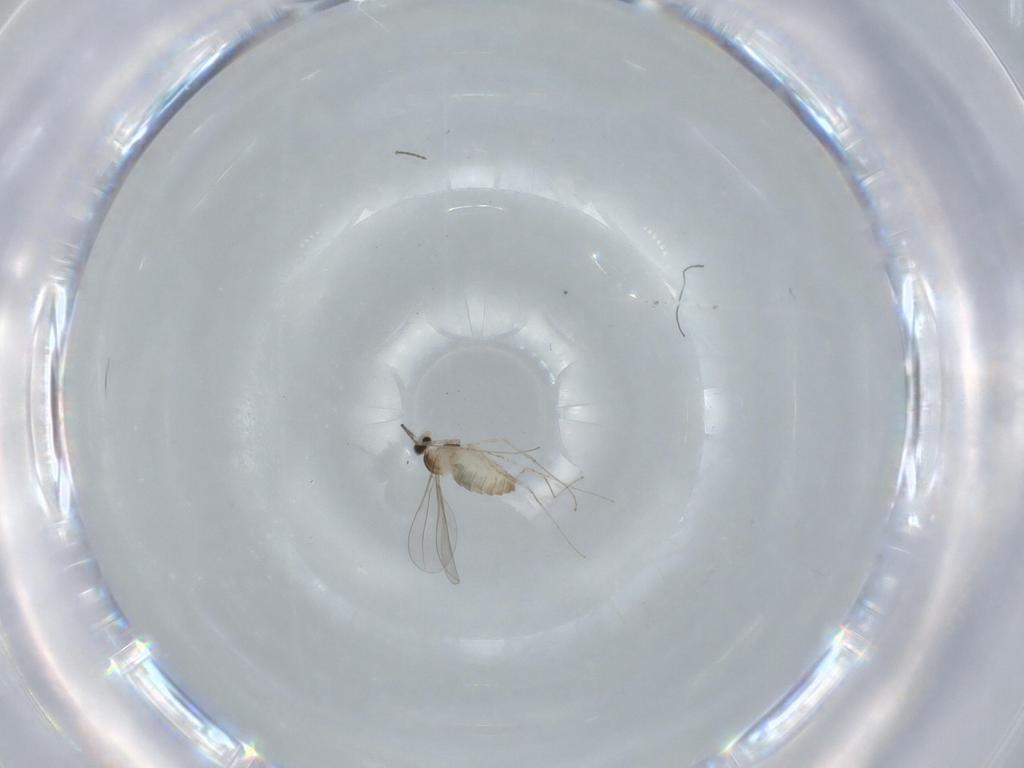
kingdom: Animalia
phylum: Arthropoda
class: Insecta
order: Diptera
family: Cecidomyiidae
